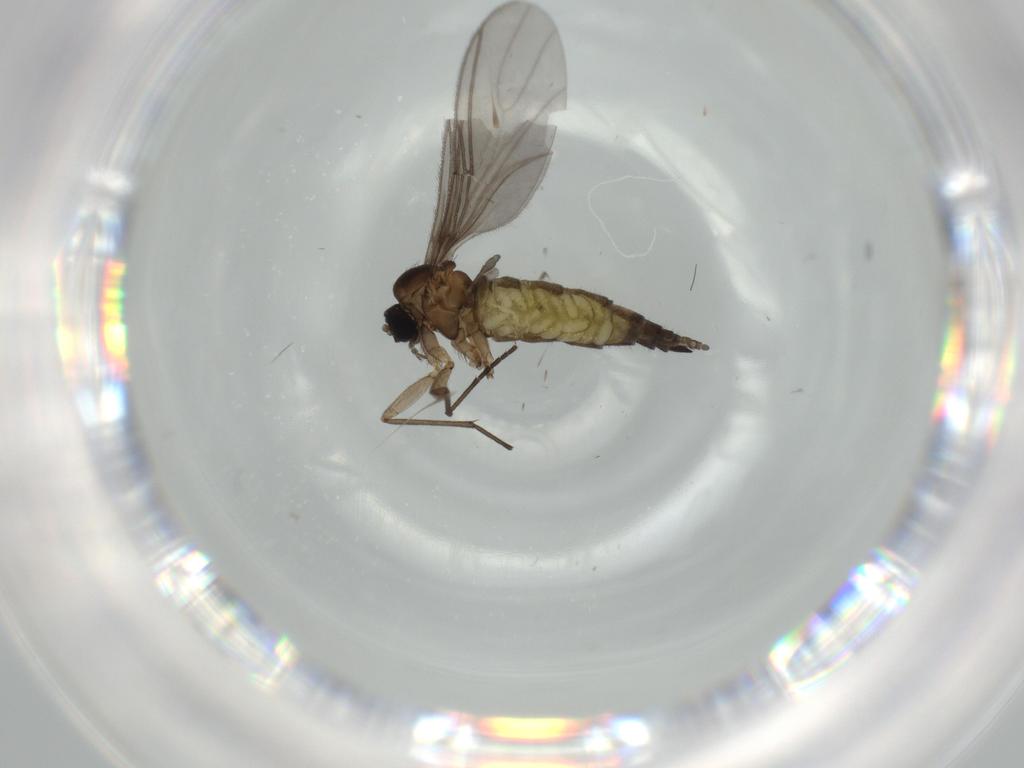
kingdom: Animalia
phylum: Arthropoda
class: Insecta
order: Diptera
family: Sciaridae
